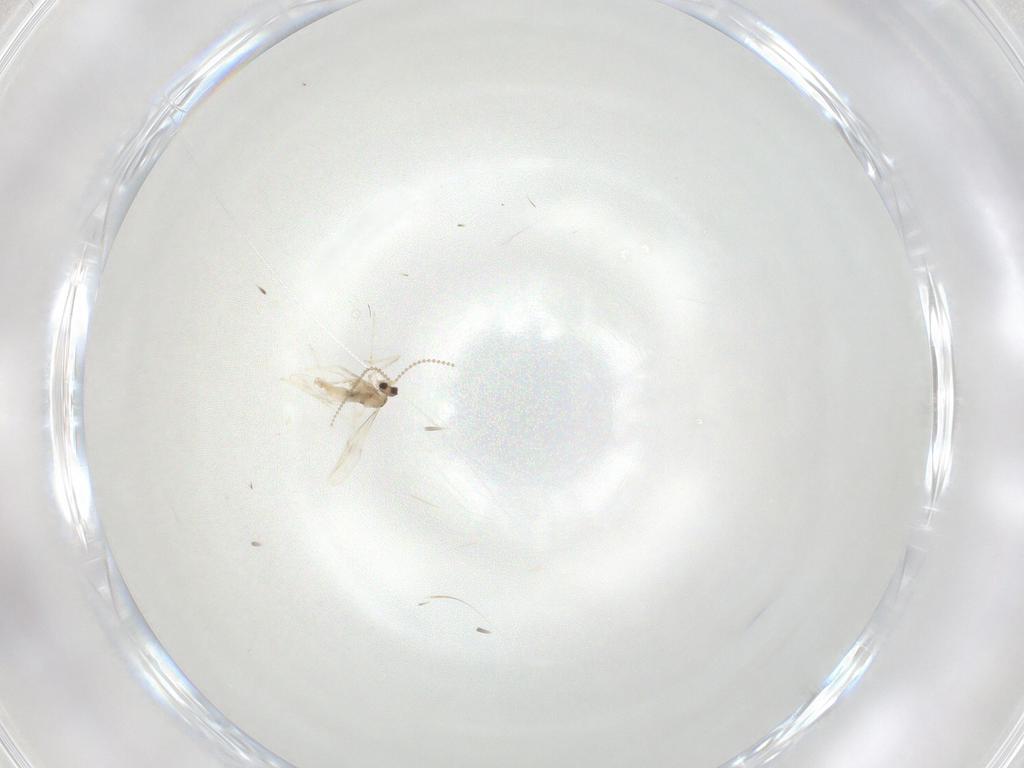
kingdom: Animalia
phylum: Arthropoda
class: Insecta
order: Diptera
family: Cecidomyiidae
